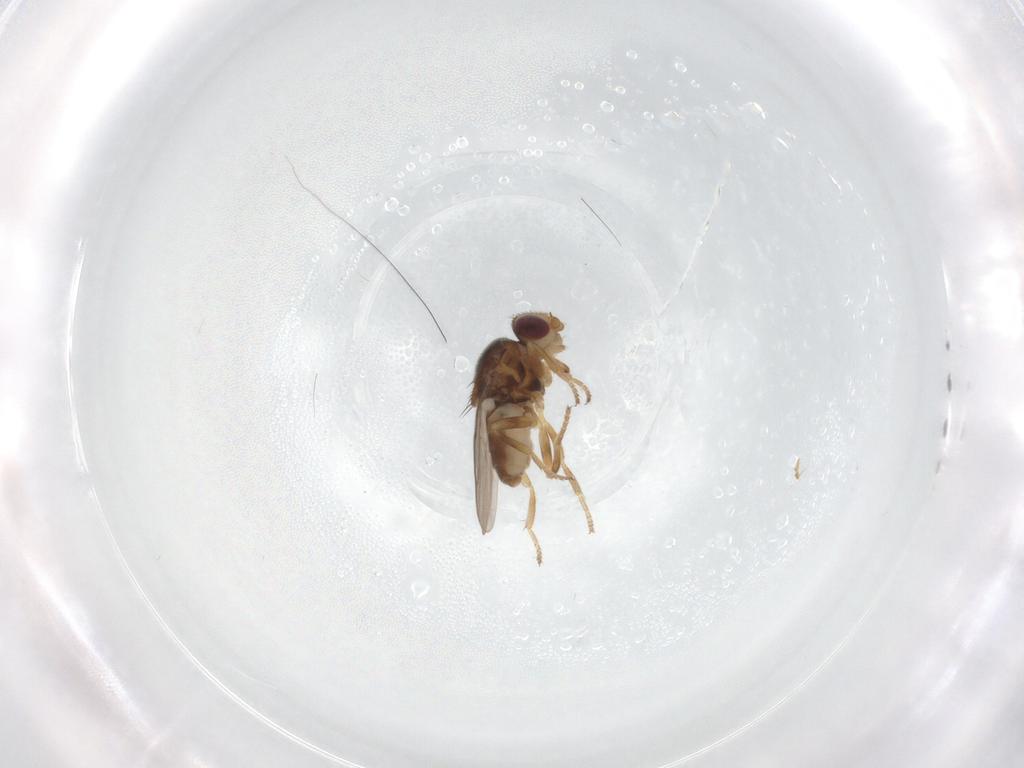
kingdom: Animalia
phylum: Arthropoda
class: Insecta
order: Diptera
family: Chloropidae
